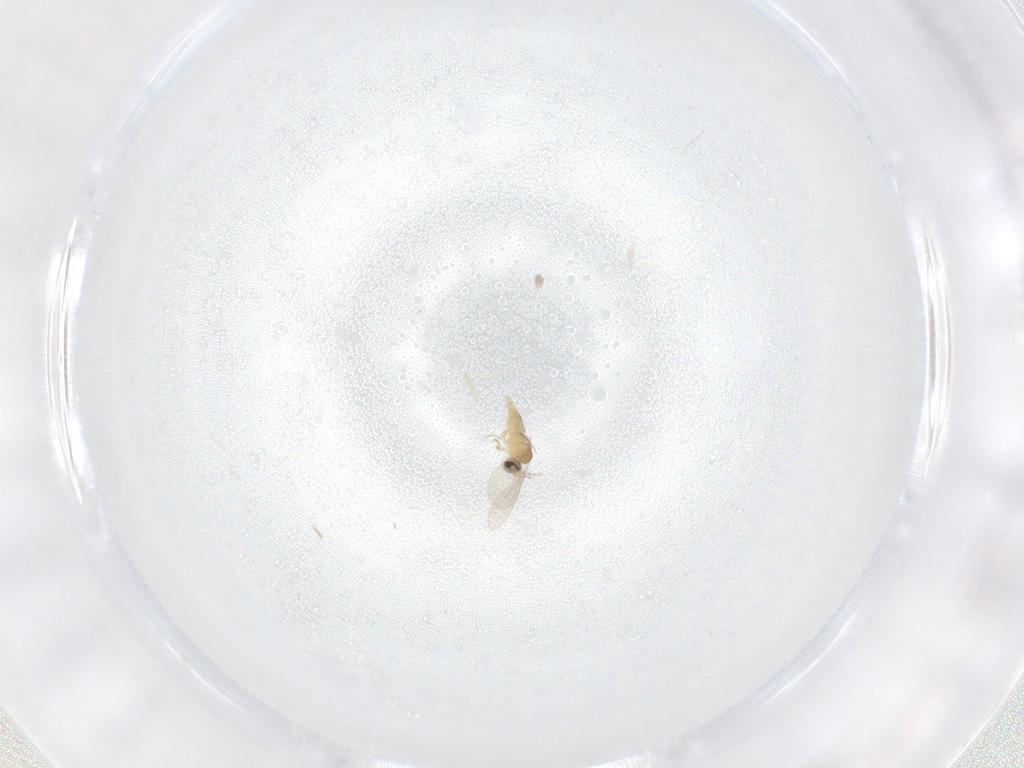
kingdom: Animalia
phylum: Arthropoda
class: Insecta
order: Diptera
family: Cecidomyiidae
